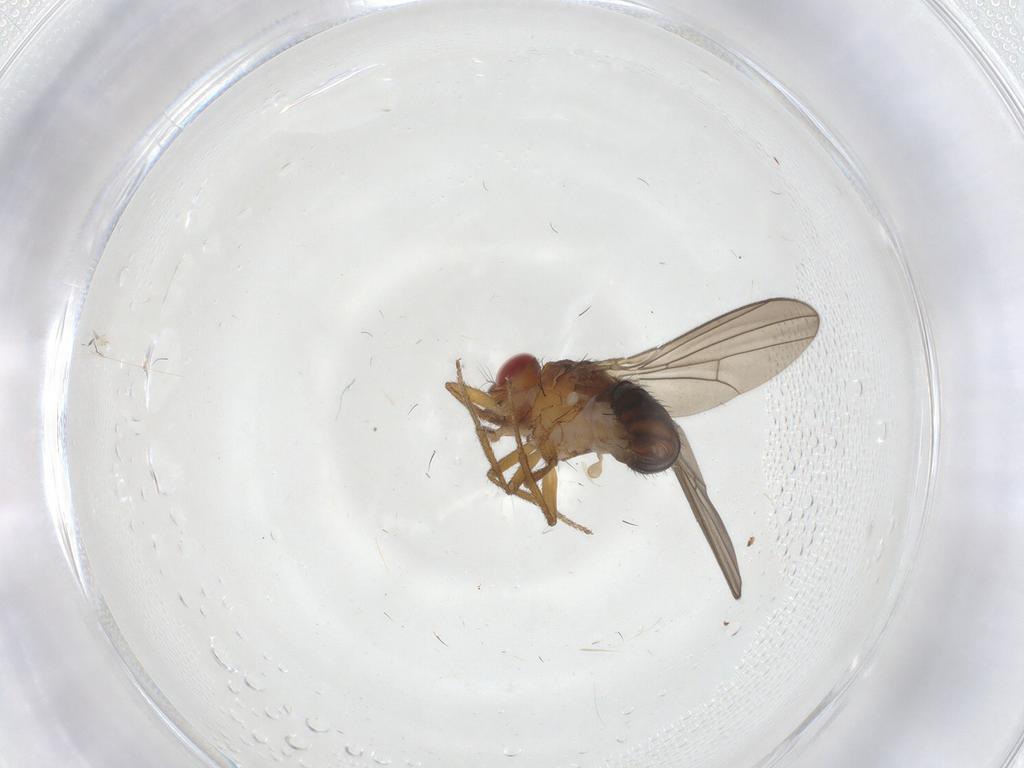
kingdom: Animalia
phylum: Arthropoda
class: Insecta
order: Diptera
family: Drosophilidae
